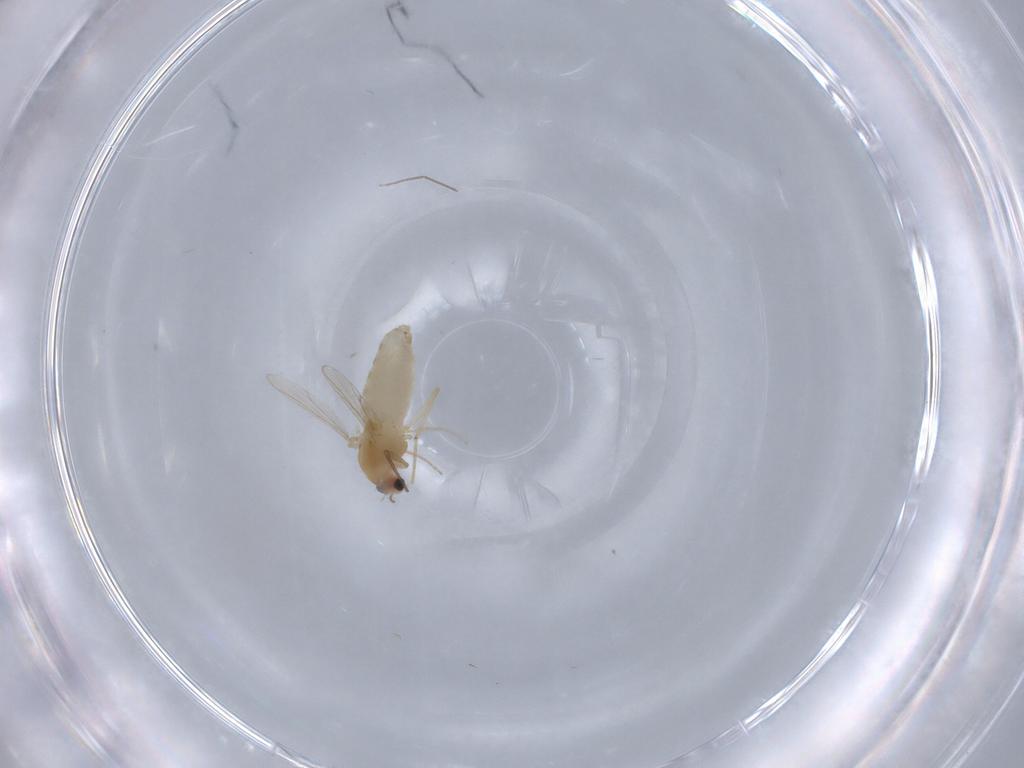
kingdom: Animalia
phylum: Arthropoda
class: Insecta
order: Diptera
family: Chironomidae
